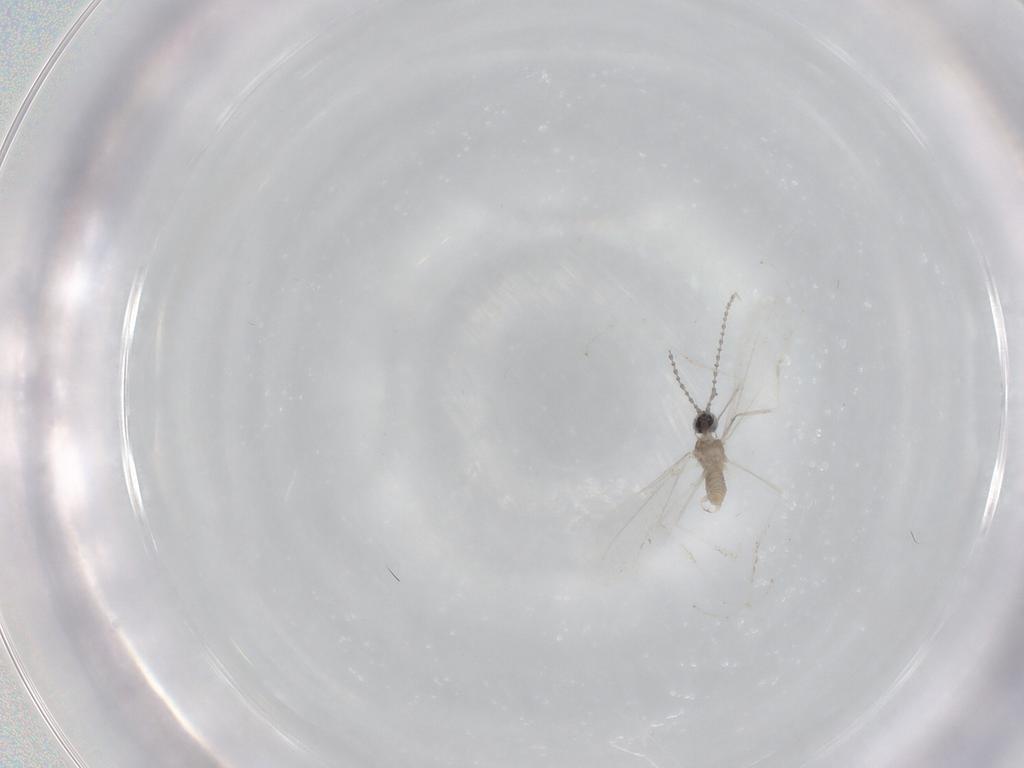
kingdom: Animalia
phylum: Arthropoda
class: Insecta
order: Diptera
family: Cecidomyiidae
